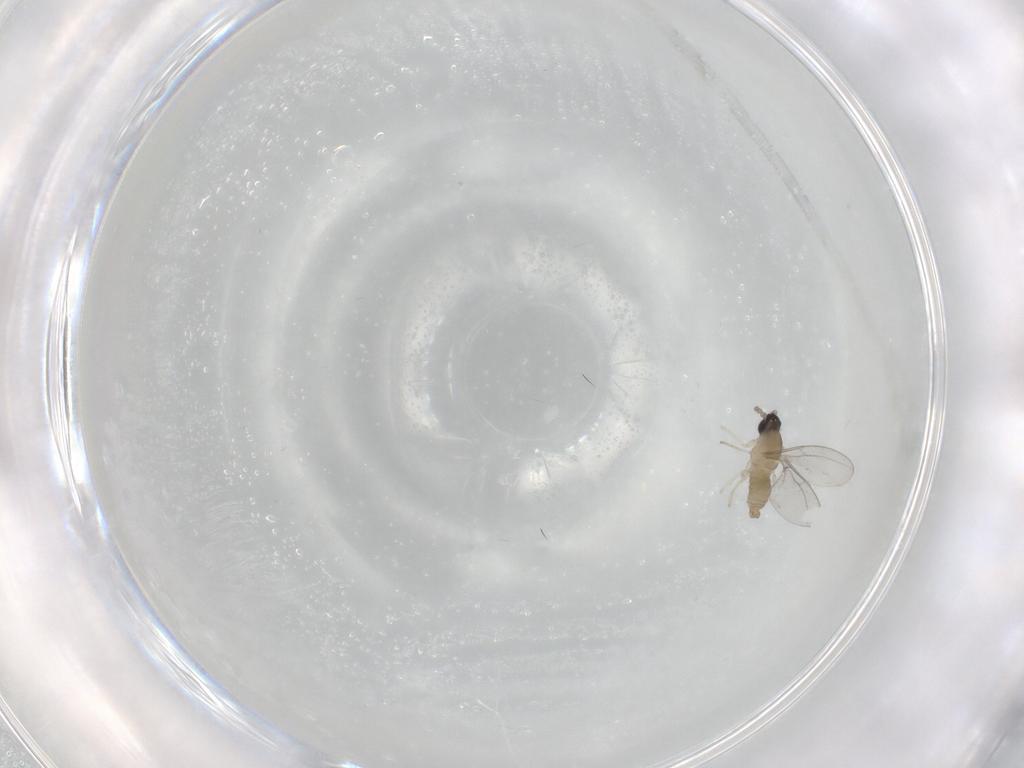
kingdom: Animalia
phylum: Arthropoda
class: Insecta
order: Diptera
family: Cecidomyiidae
